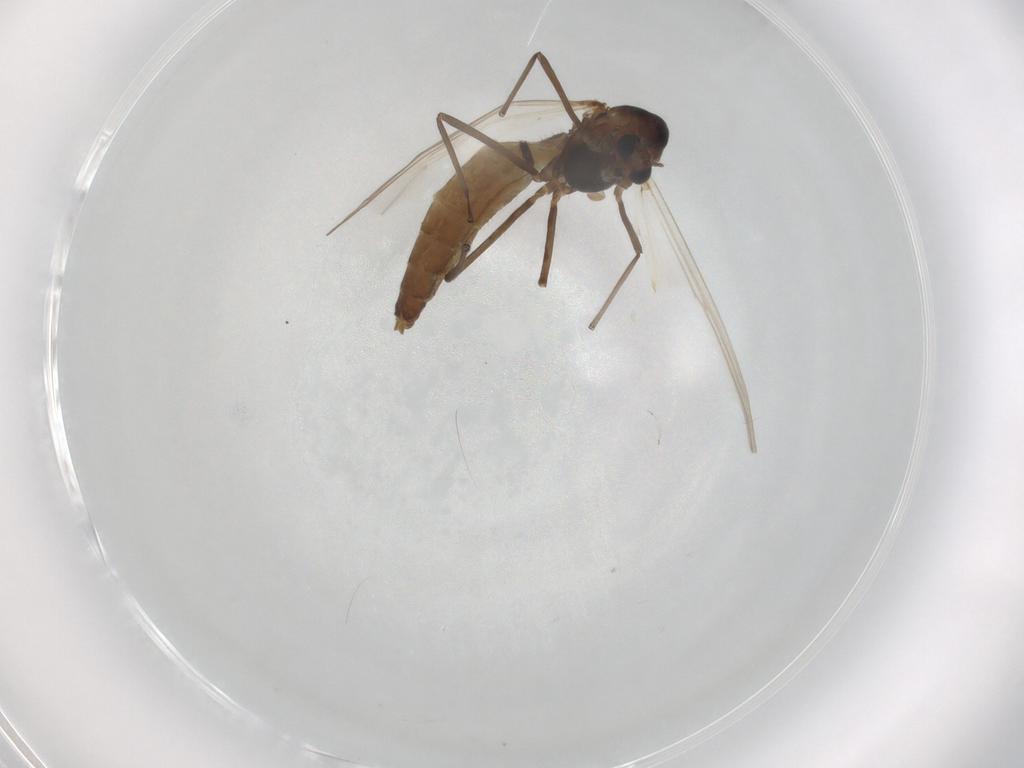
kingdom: Animalia
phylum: Arthropoda
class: Insecta
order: Diptera
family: Chironomidae
